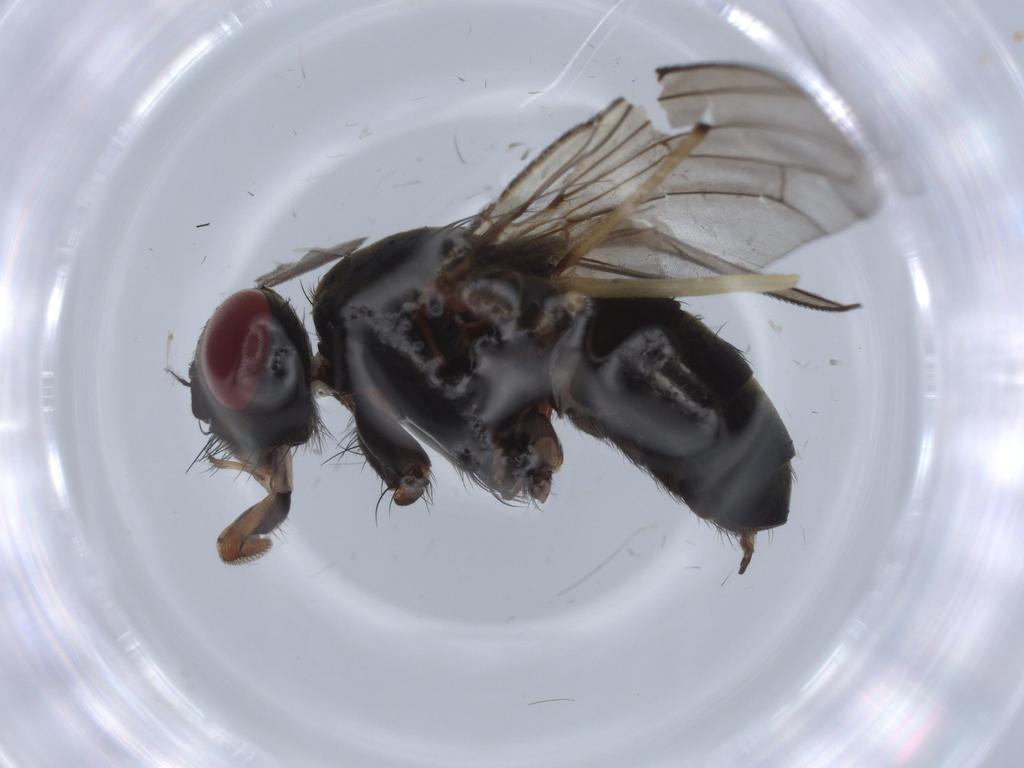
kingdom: Animalia
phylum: Arthropoda
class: Insecta
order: Diptera
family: Calliphoridae
